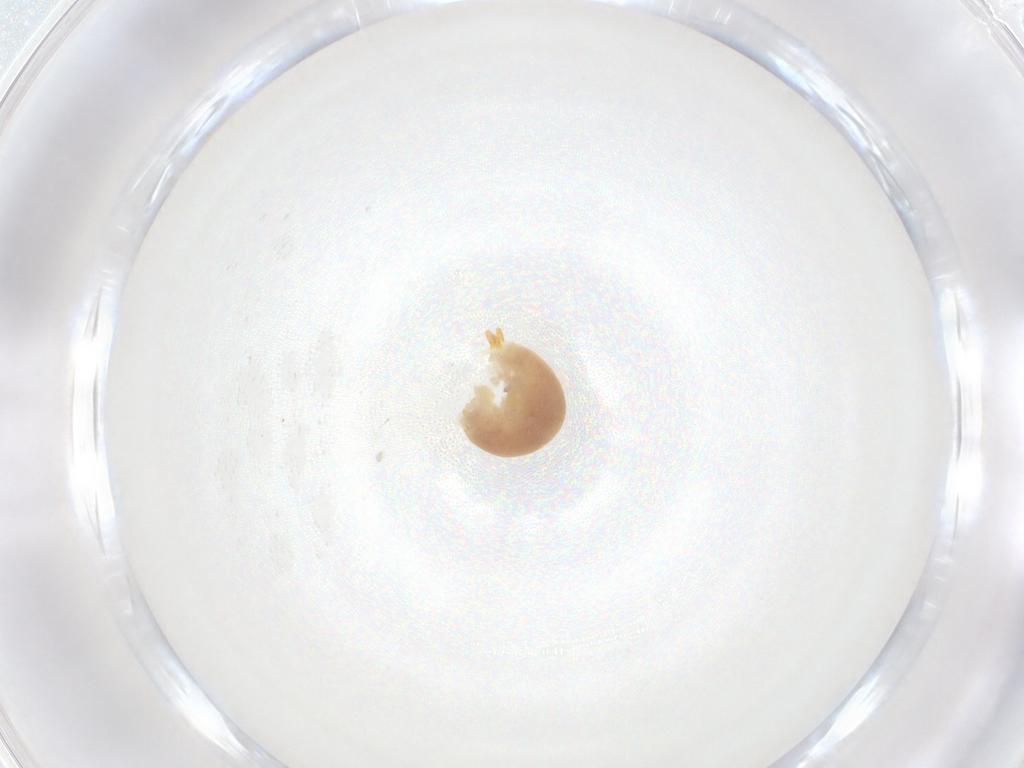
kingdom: Animalia
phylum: Arthropoda
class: Arachnida
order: Araneae
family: Oonopidae
